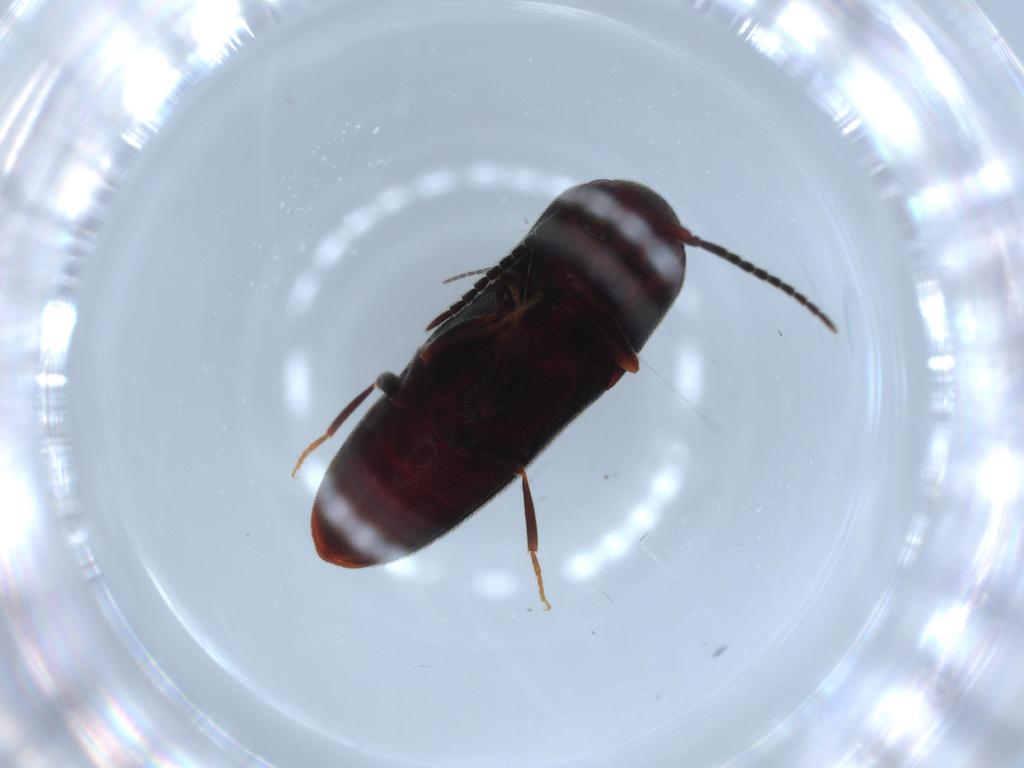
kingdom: Animalia
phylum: Arthropoda
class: Insecta
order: Coleoptera
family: Eucnemidae
